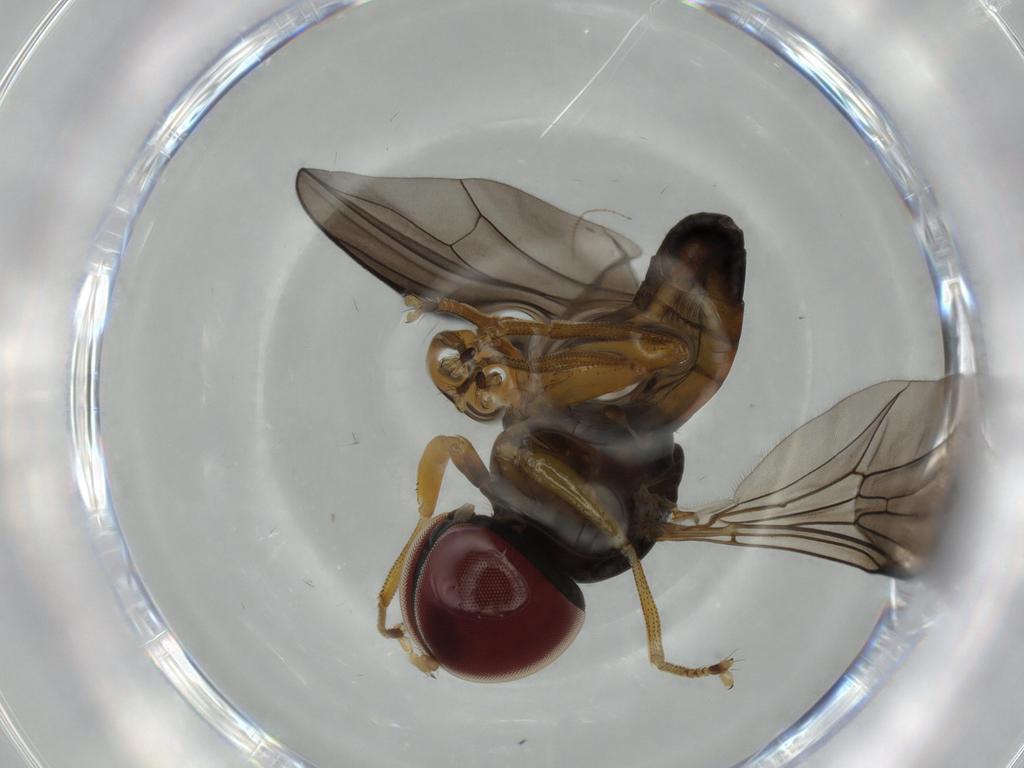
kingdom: Animalia
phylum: Arthropoda
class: Insecta
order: Diptera
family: Pipunculidae
